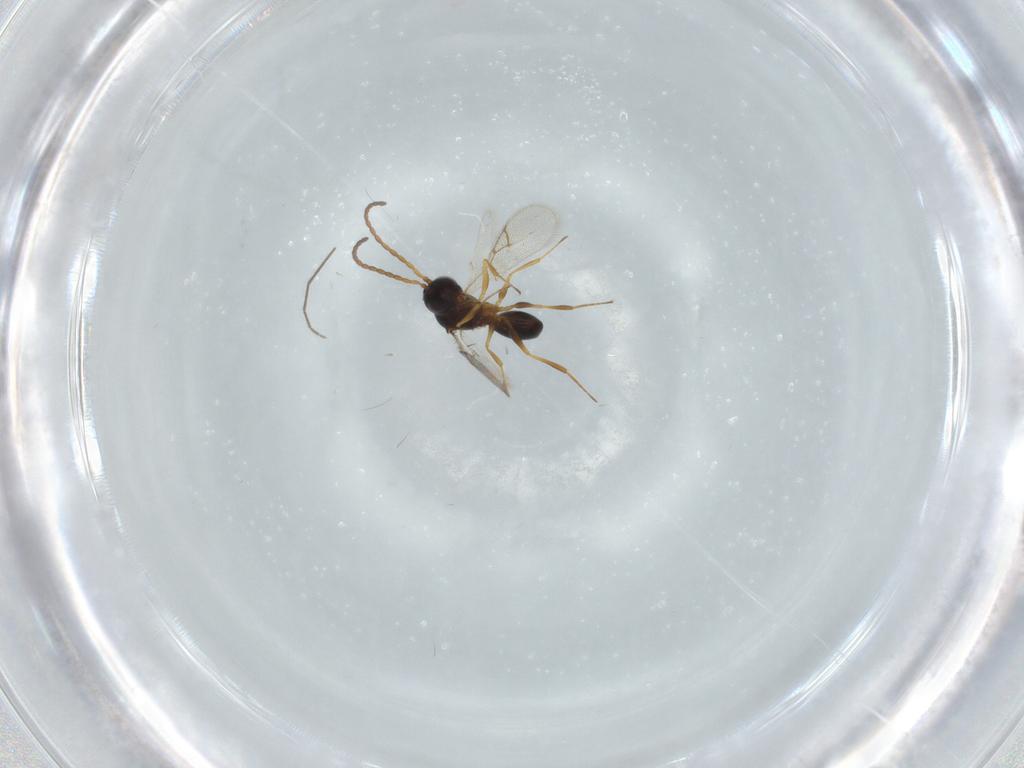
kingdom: Animalia
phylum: Arthropoda
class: Insecta
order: Hymenoptera
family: Figitidae
